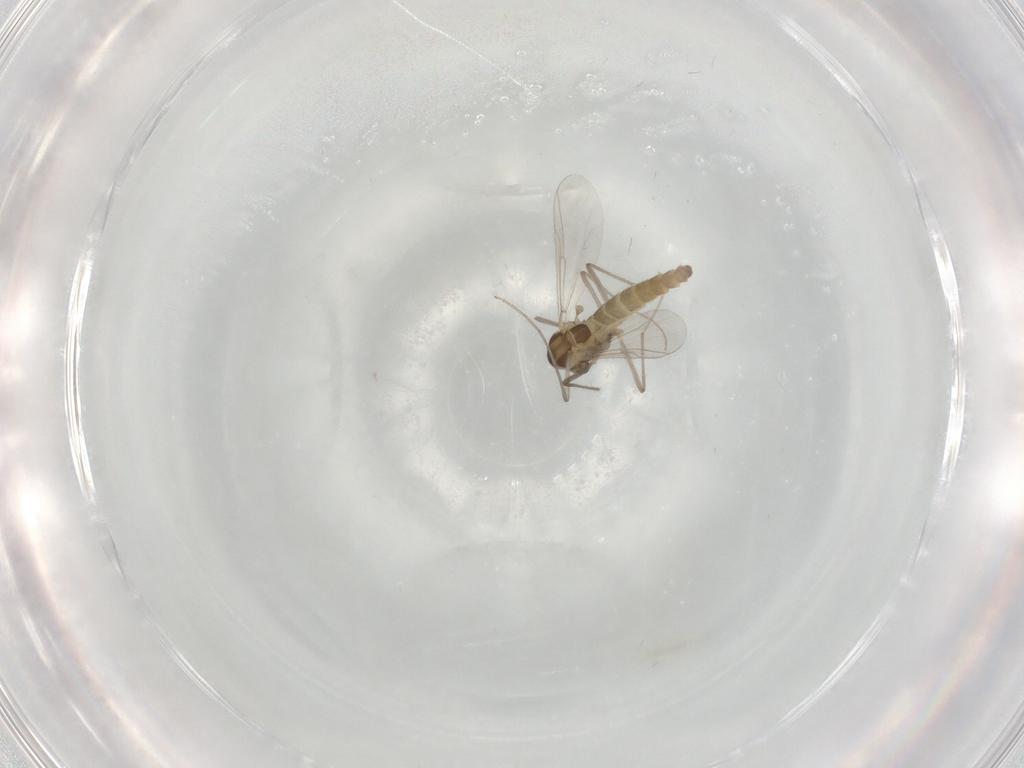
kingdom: Animalia
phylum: Arthropoda
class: Insecta
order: Diptera
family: Chironomidae
